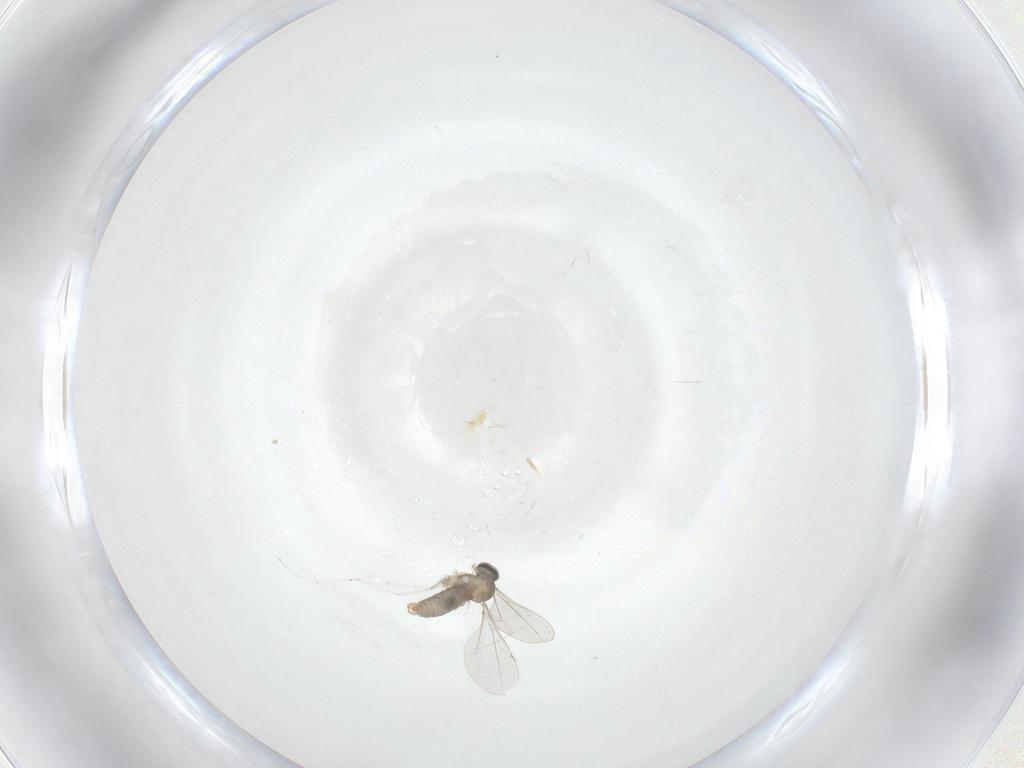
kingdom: Animalia
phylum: Arthropoda
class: Insecta
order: Diptera
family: Cecidomyiidae
